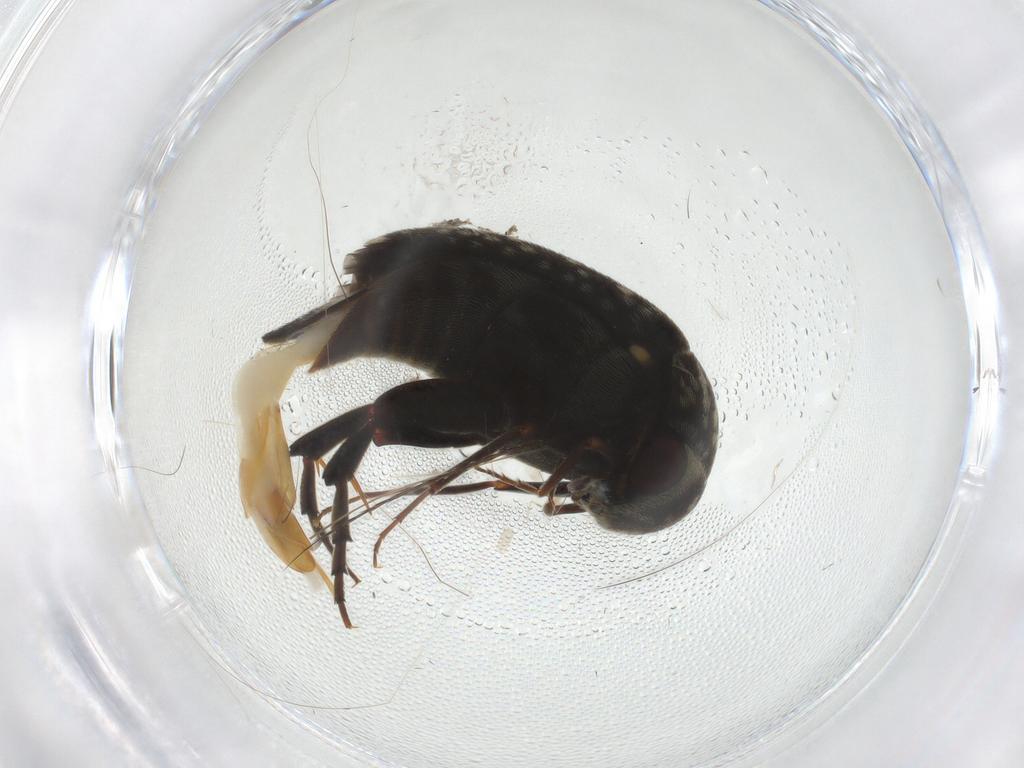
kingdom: Animalia
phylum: Arthropoda
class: Insecta
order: Coleoptera
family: Mordellidae
